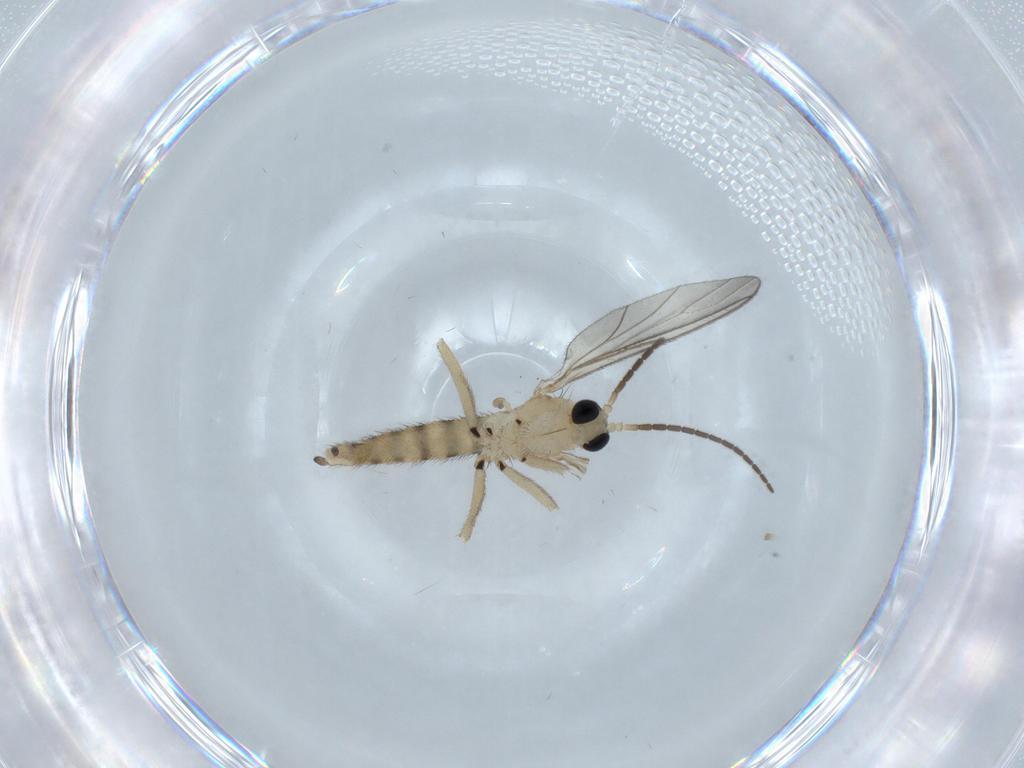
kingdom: Animalia
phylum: Arthropoda
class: Insecta
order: Diptera
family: Sciaridae
